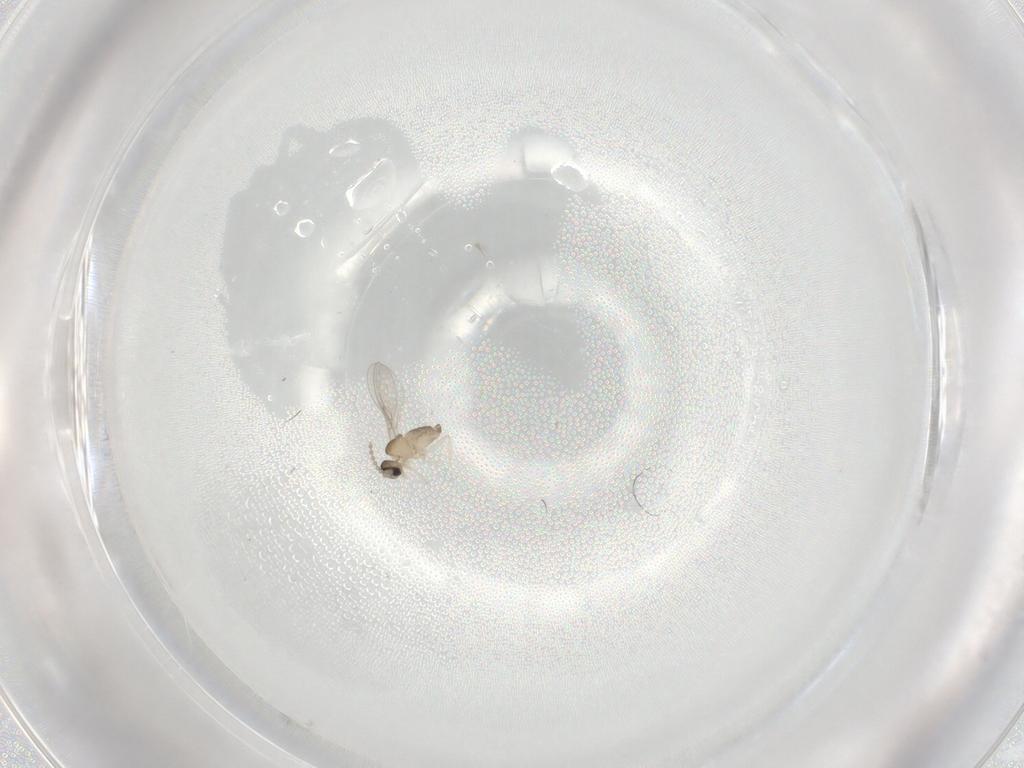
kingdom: Animalia
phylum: Arthropoda
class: Insecta
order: Diptera
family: Cecidomyiidae
